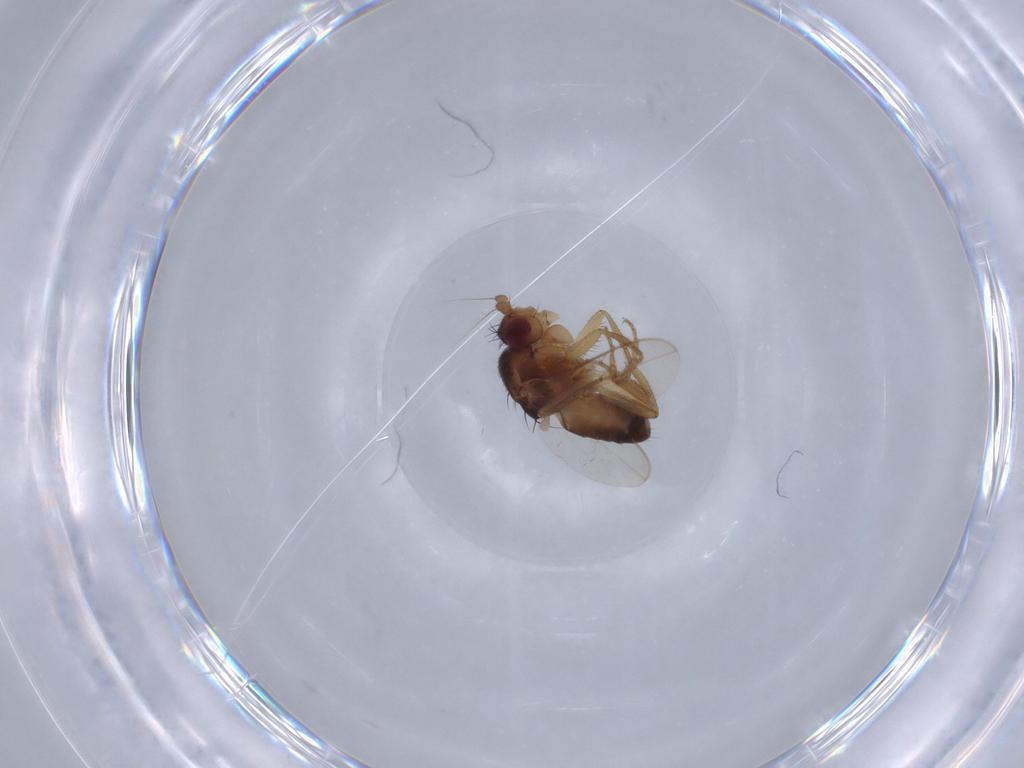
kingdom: Animalia
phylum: Arthropoda
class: Insecta
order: Diptera
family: Sphaeroceridae
